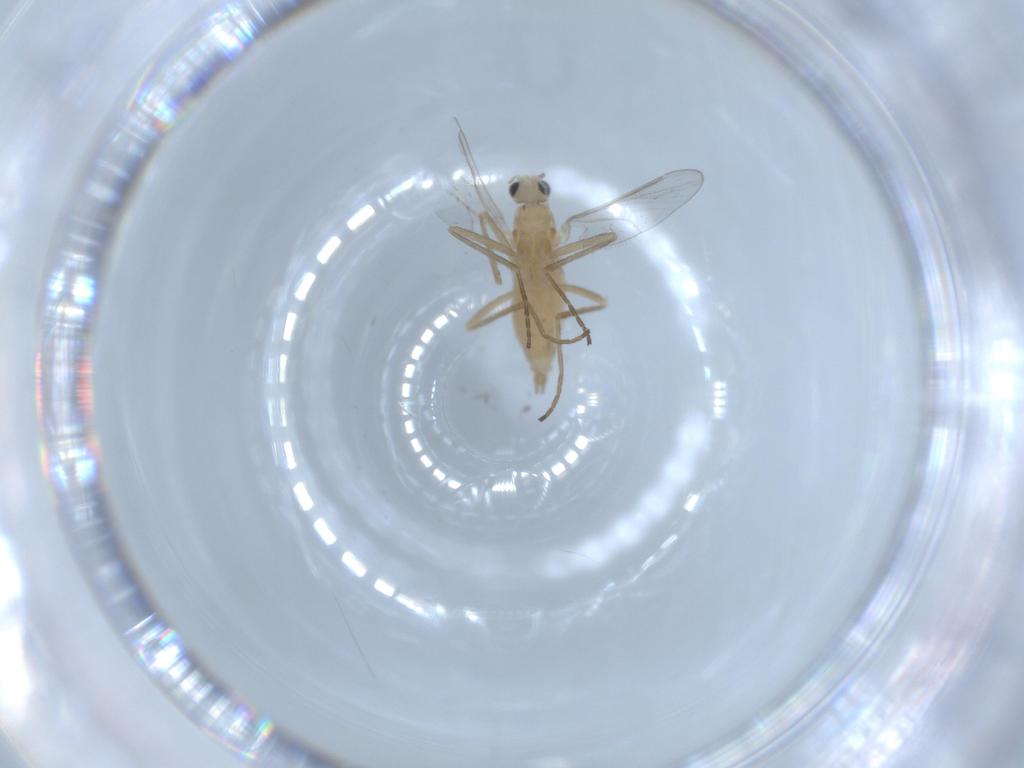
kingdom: Animalia
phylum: Arthropoda
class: Insecta
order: Diptera
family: Cecidomyiidae
